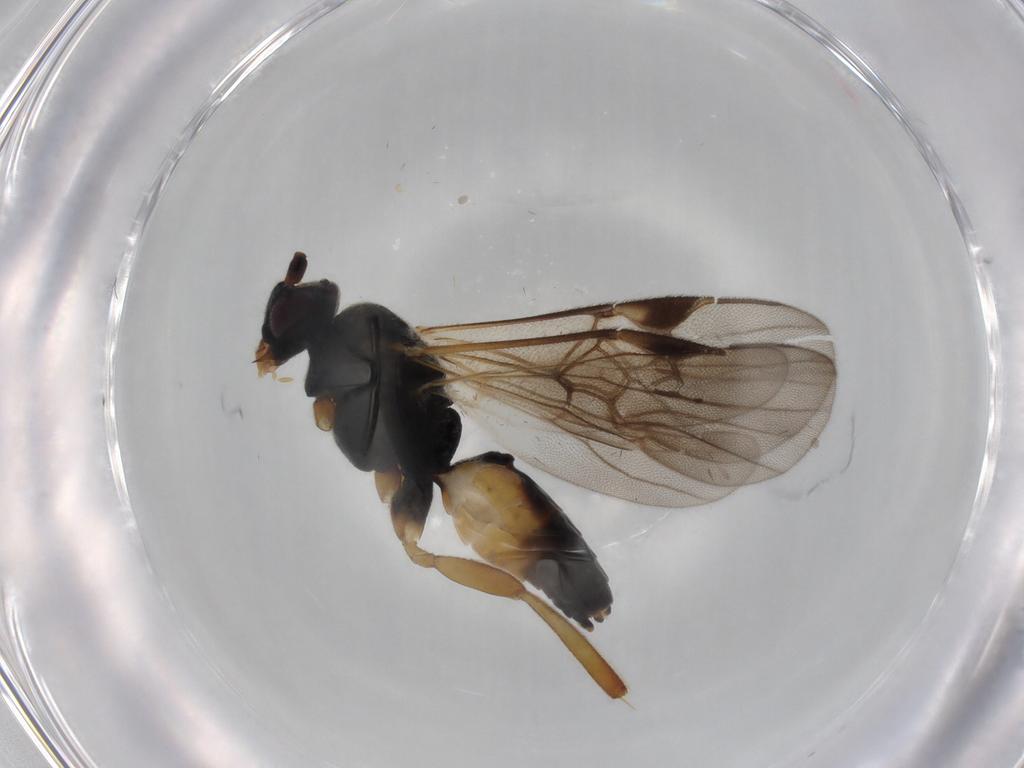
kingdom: Animalia
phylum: Arthropoda
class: Insecta
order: Hymenoptera
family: Braconidae
